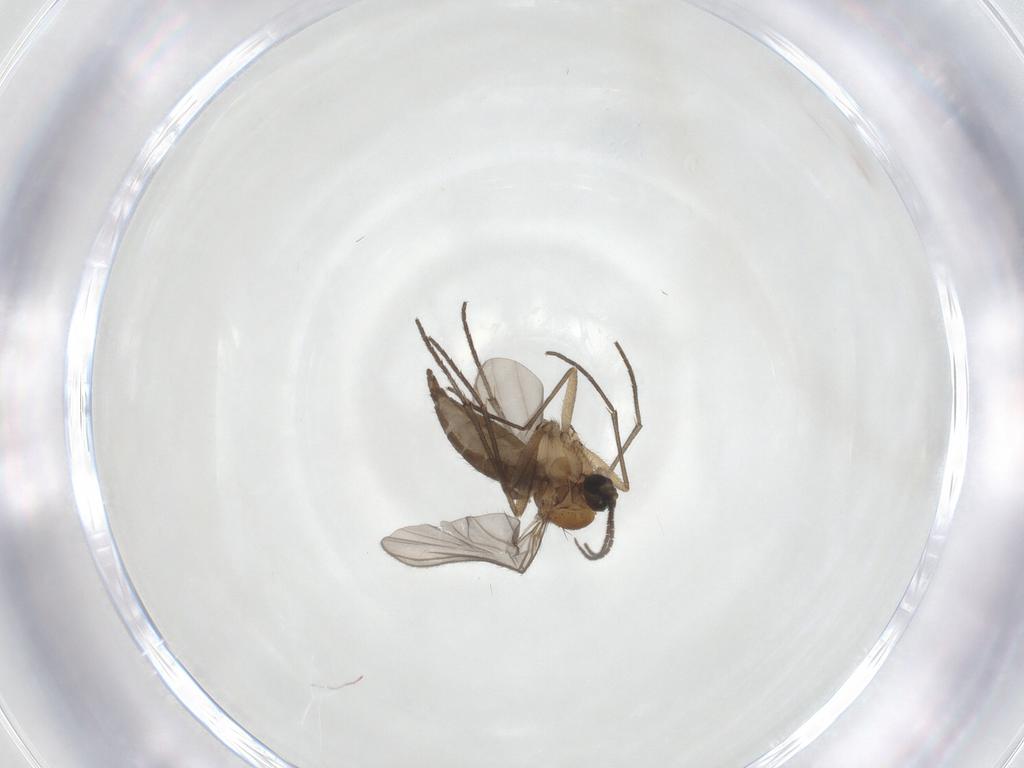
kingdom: Animalia
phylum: Arthropoda
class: Insecta
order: Diptera
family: Sciaridae
